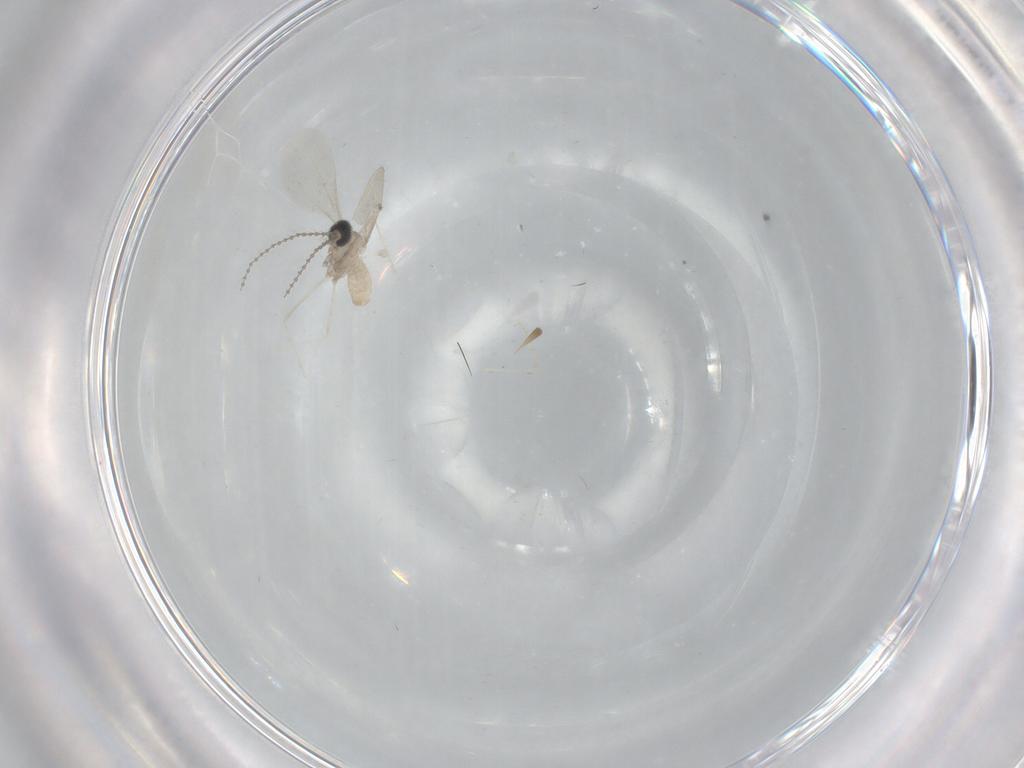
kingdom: Animalia
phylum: Arthropoda
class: Insecta
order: Diptera
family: Cecidomyiidae
